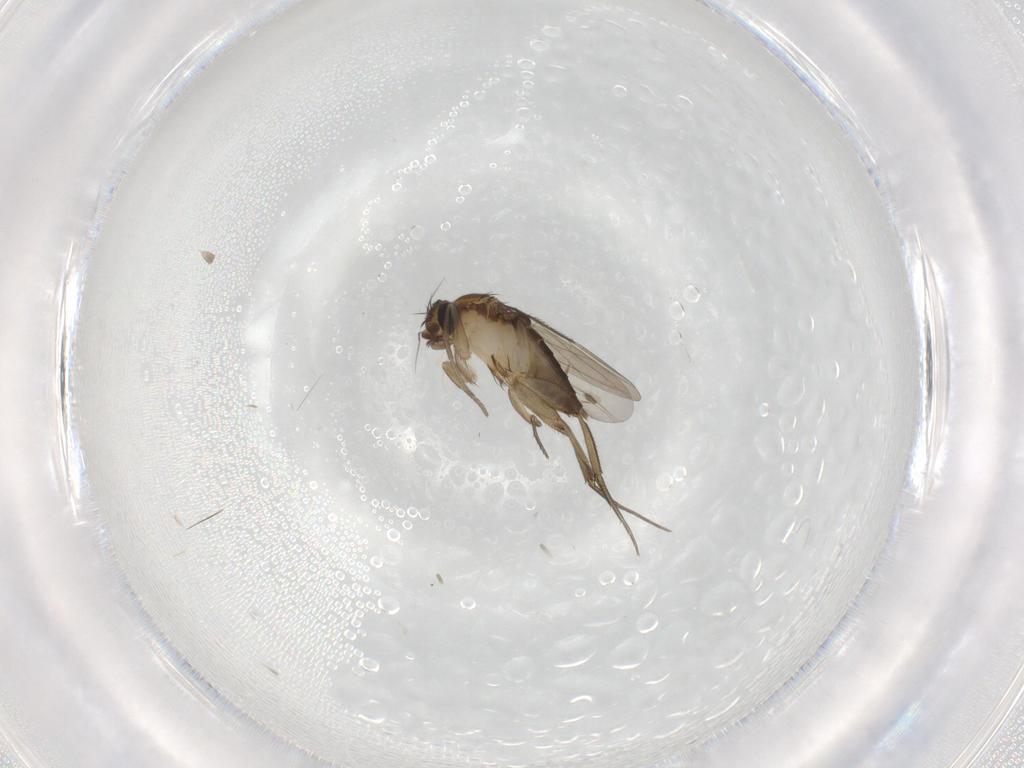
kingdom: Animalia
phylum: Arthropoda
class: Insecta
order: Diptera
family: Phoridae
